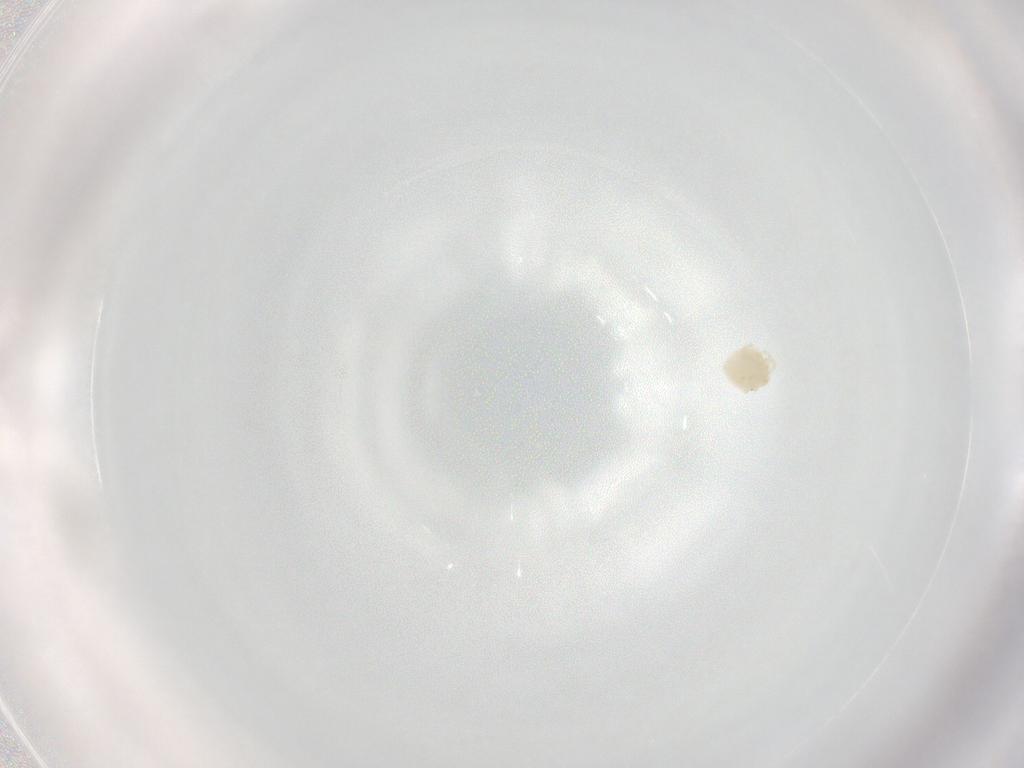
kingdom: Animalia
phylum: Arthropoda
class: Arachnida
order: Trombidiformes
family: Sperchontidae
